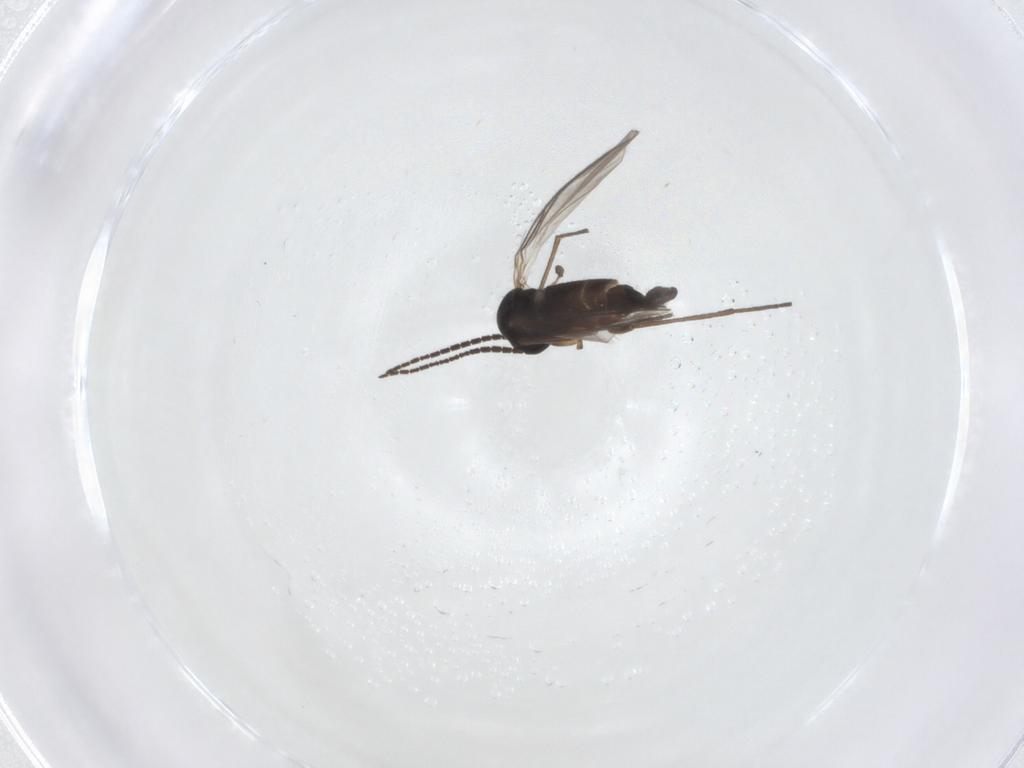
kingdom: Animalia
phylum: Arthropoda
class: Insecta
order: Diptera
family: Sciaridae
